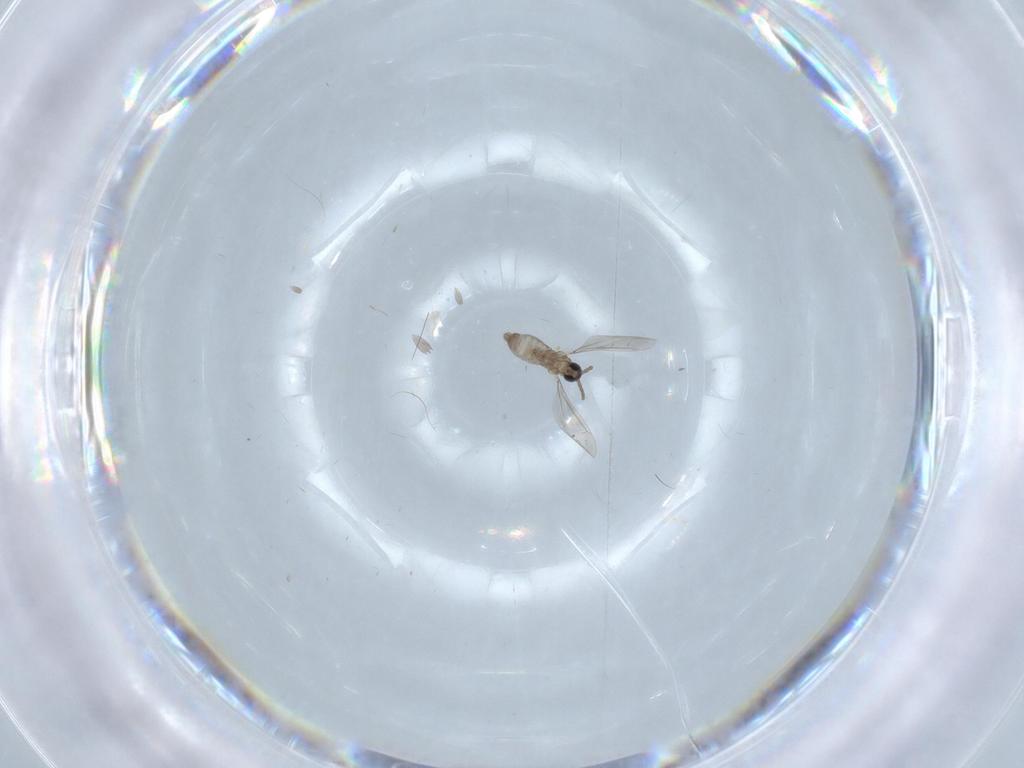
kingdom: Animalia
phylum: Arthropoda
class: Insecta
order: Diptera
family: Cecidomyiidae
